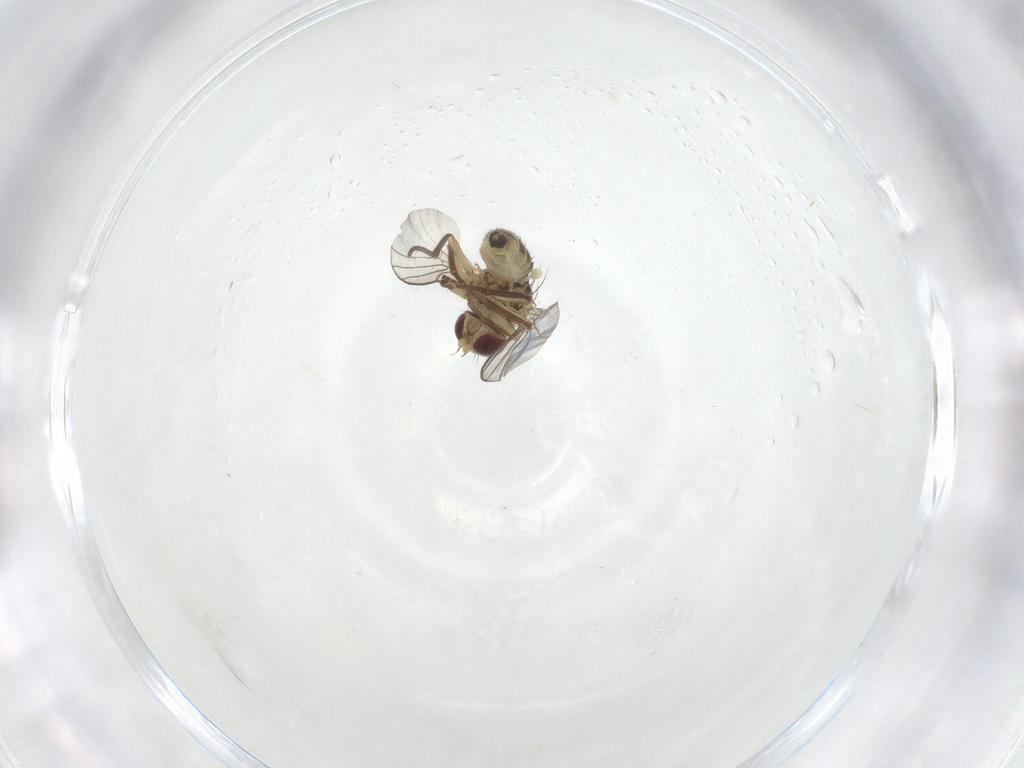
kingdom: Animalia
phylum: Arthropoda
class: Insecta
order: Diptera
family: Agromyzidae
